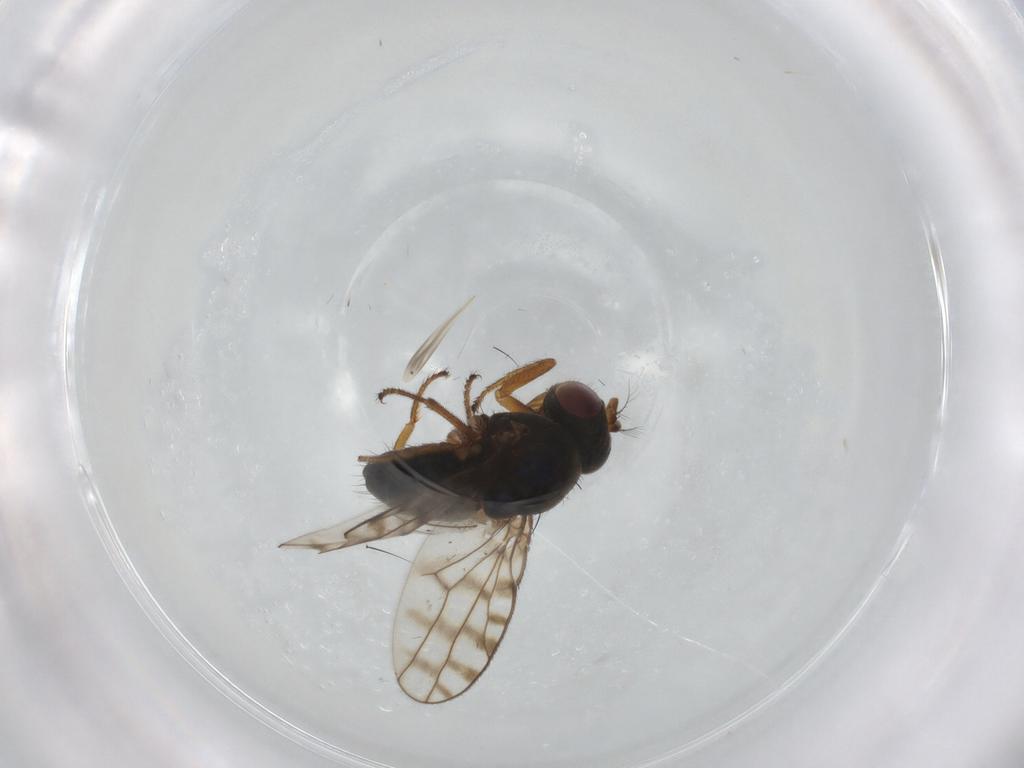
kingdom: Animalia
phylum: Arthropoda
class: Insecta
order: Diptera
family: Ephydridae
